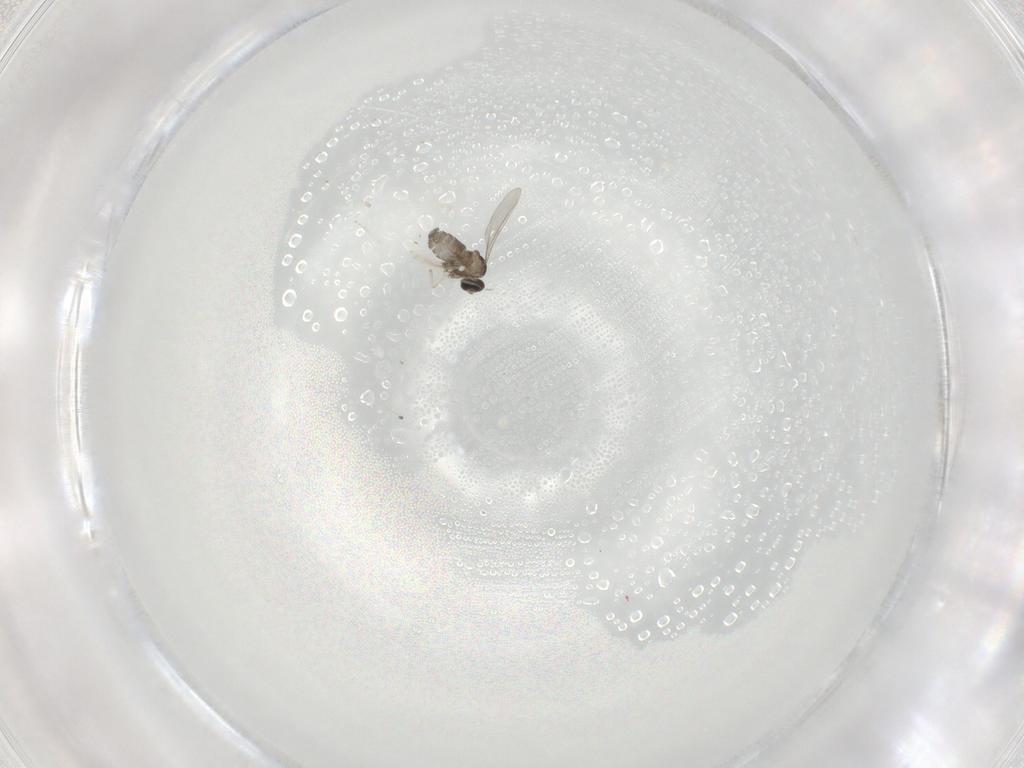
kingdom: Animalia
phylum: Arthropoda
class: Insecta
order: Diptera
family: Cecidomyiidae
